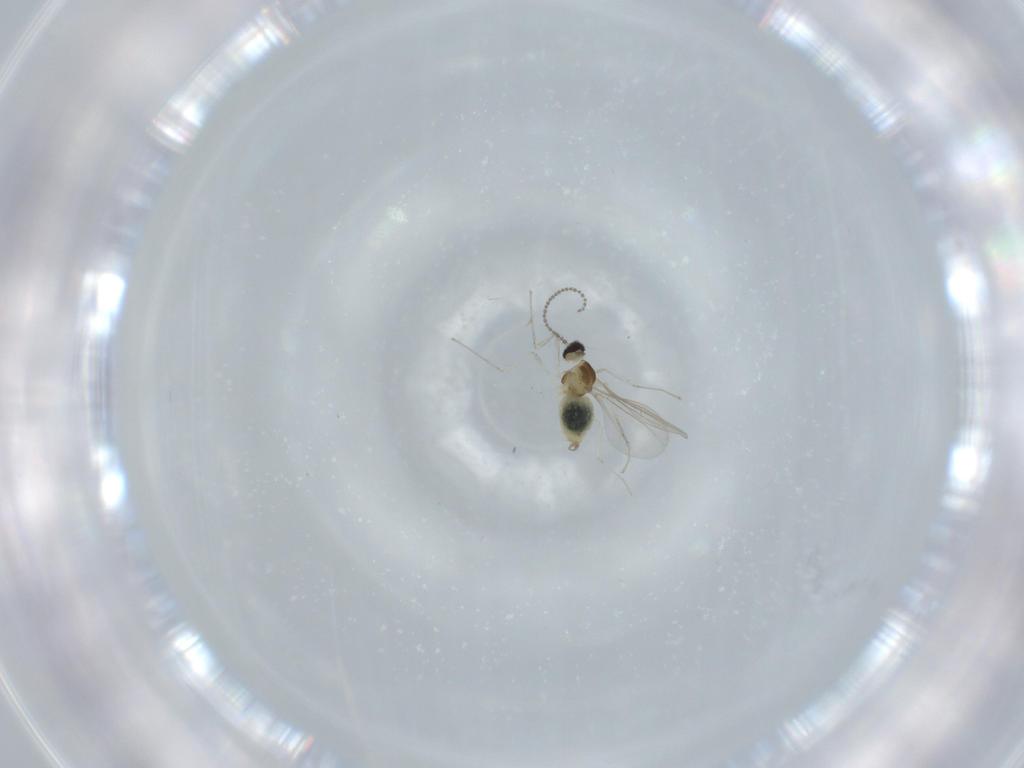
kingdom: Animalia
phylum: Arthropoda
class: Insecta
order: Diptera
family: Cecidomyiidae
